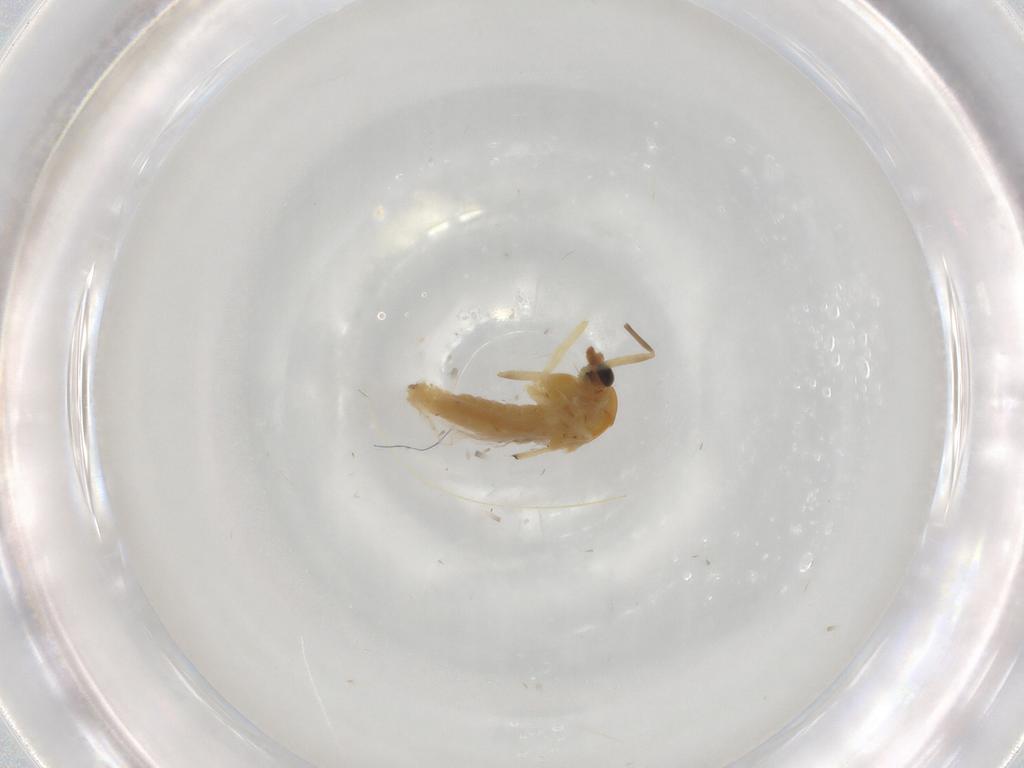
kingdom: Animalia
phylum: Arthropoda
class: Insecta
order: Diptera
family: Chironomidae
